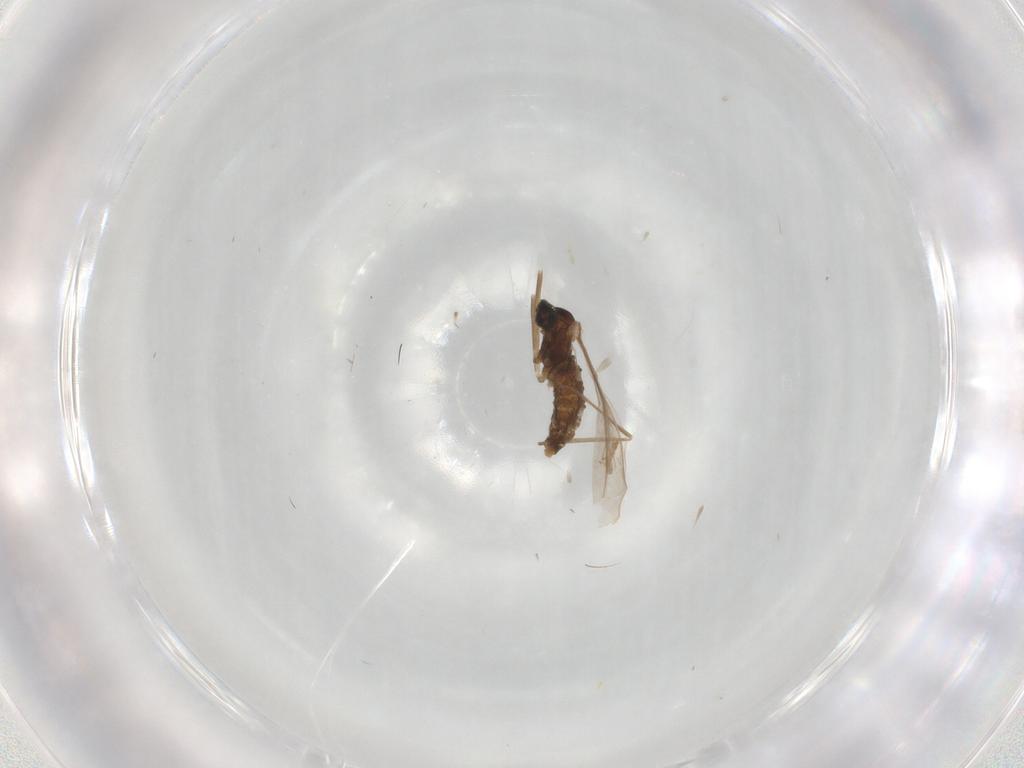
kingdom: Animalia
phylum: Arthropoda
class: Insecta
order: Diptera
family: Cecidomyiidae
